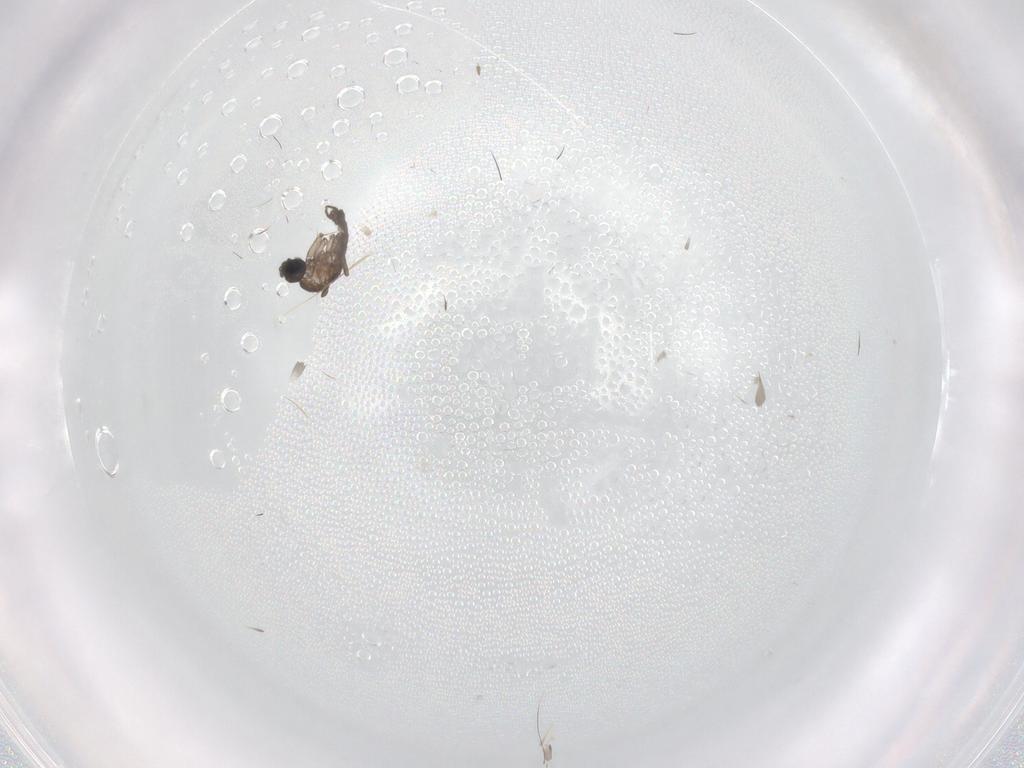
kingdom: Animalia
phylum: Arthropoda
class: Insecta
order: Diptera
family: Sciaridae
